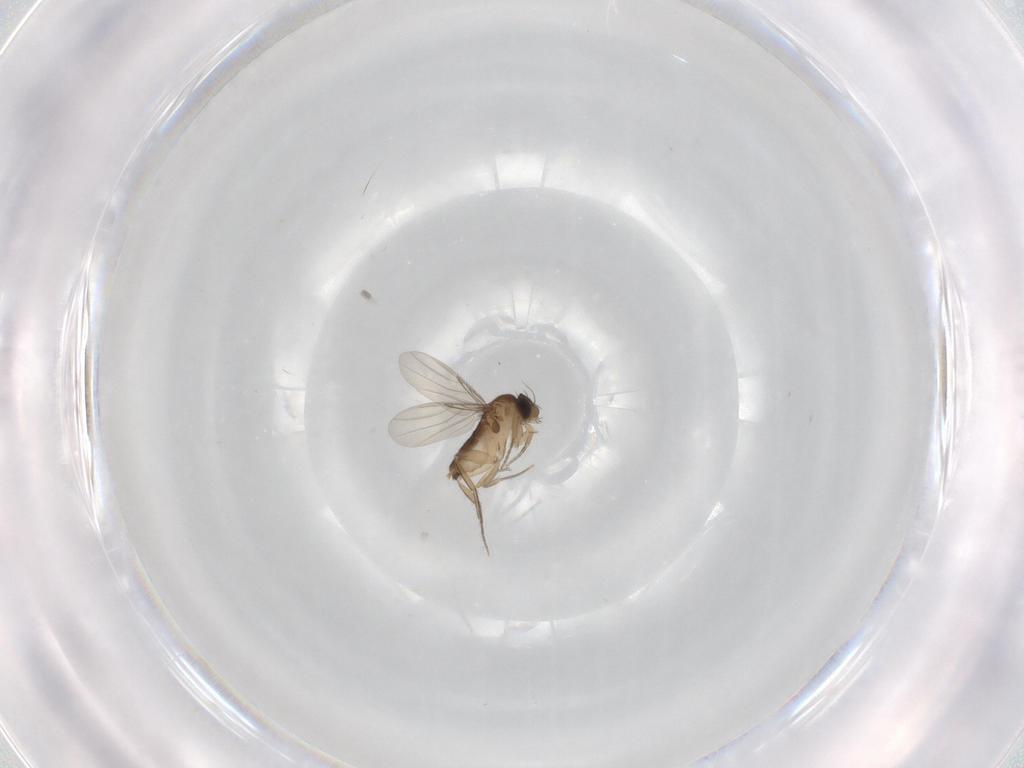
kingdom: Animalia
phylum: Arthropoda
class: Insecta
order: Diptera
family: Phoridae
